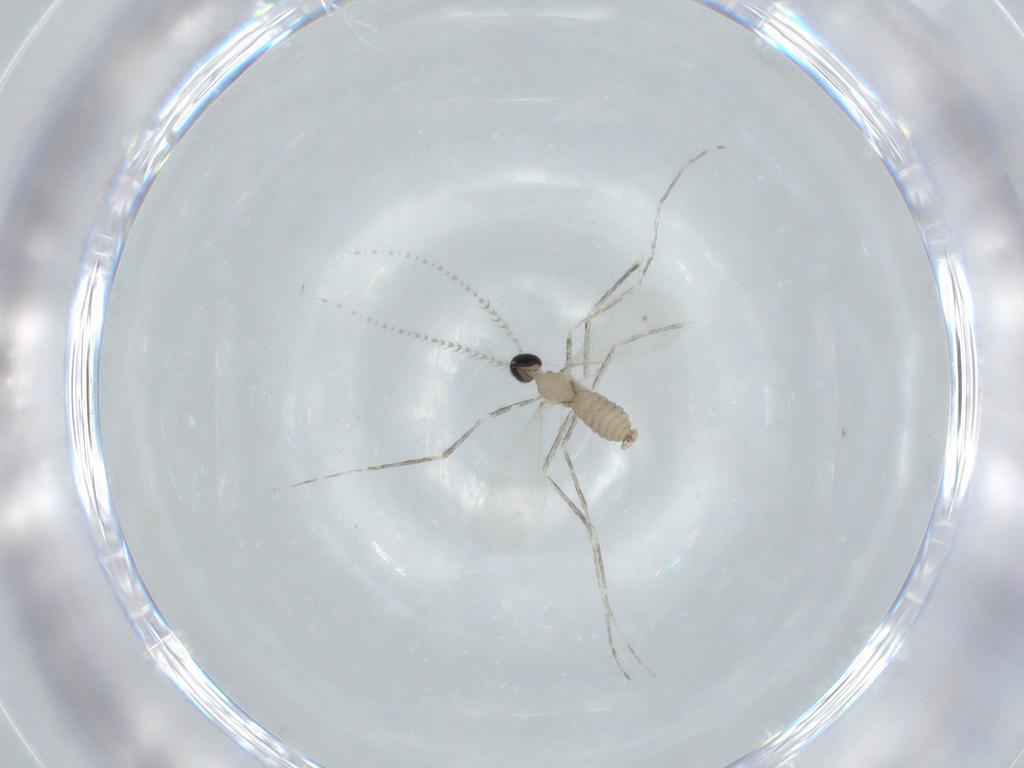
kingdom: Animalia
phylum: Arthropoda
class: Insecta
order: Diptera
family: Cecidomyiidae
